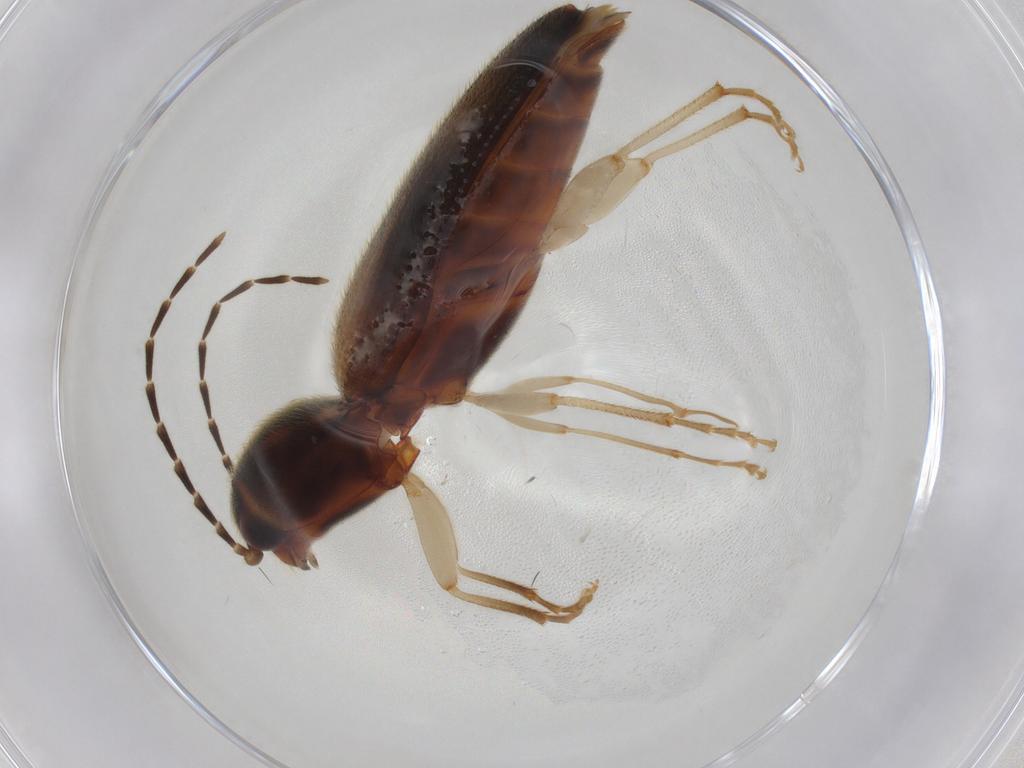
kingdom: Animalia
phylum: Arthropoda
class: Insecta
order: Coleoptera
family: Elateridae
